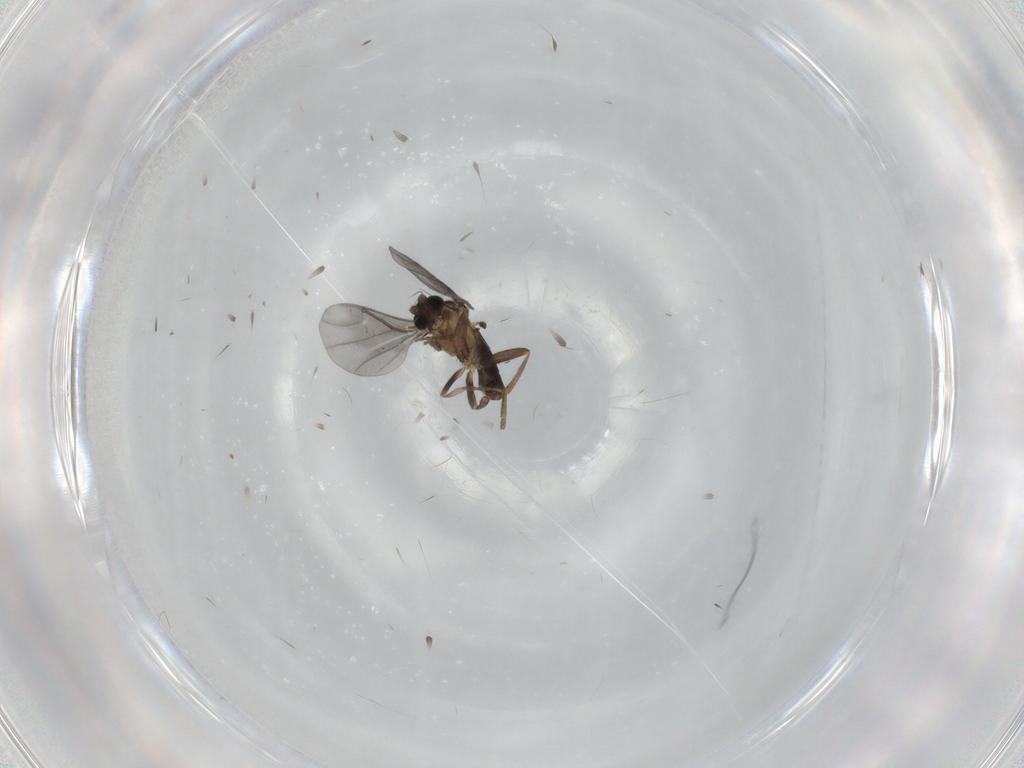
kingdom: Animalia
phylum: Arthropoda
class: Insecta
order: Diptera
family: Phoridae
